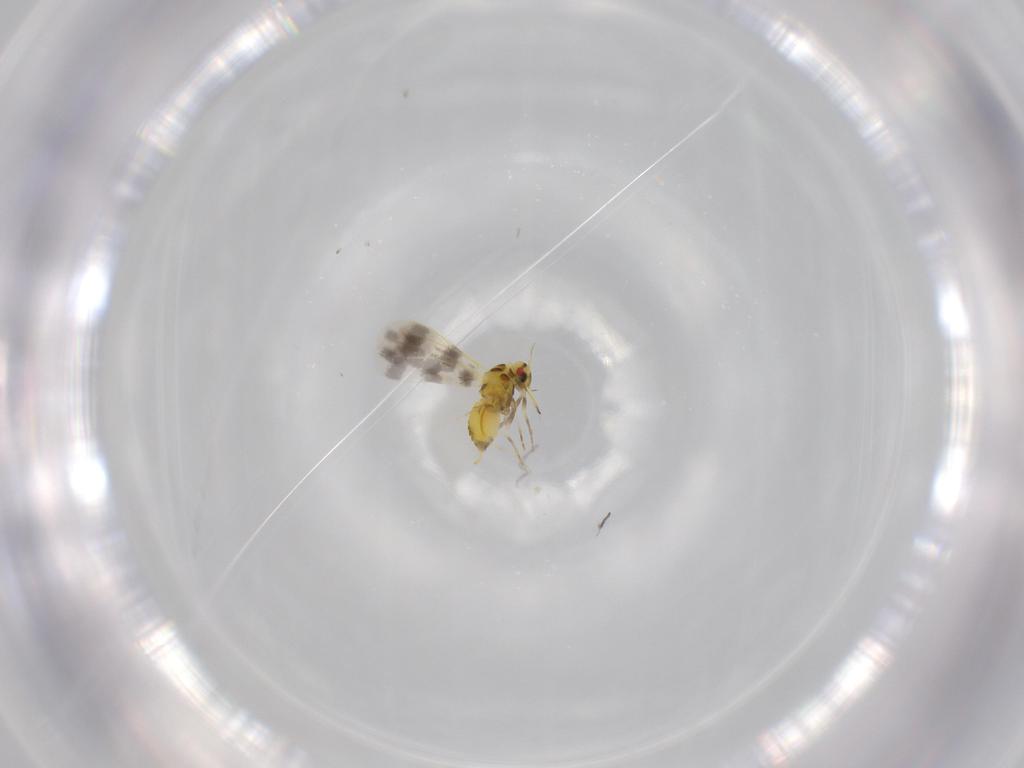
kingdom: Animalia
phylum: Arthropoda
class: Insecta
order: Hemiptera
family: Aleyrodidae
